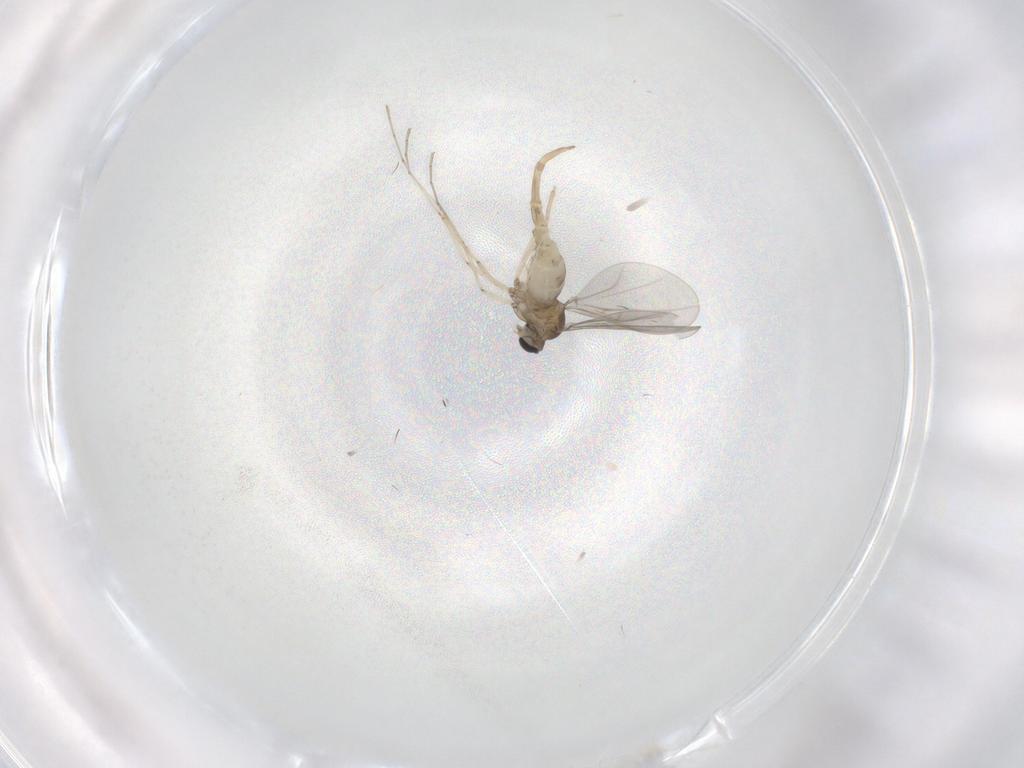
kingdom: Animalia
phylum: Arthropoda
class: Insecta
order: Diptera
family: Cecidomyiidae
